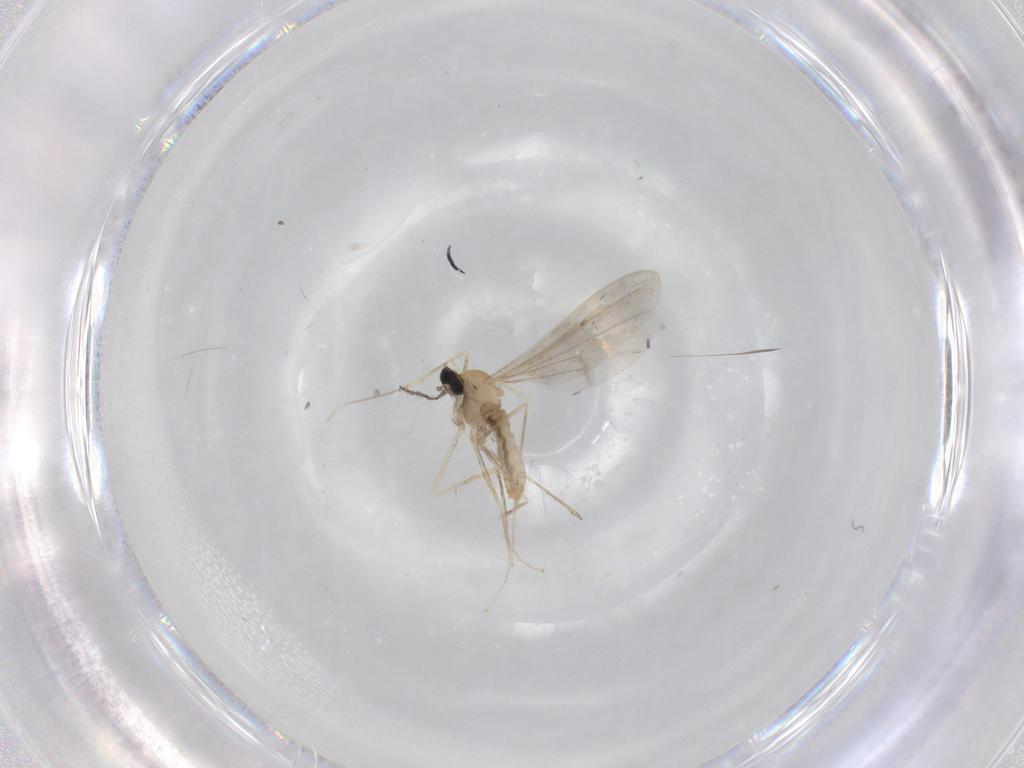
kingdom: Animalia
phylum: Arthropoda
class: Insecta
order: Diptera
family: Cecidomyiidae
